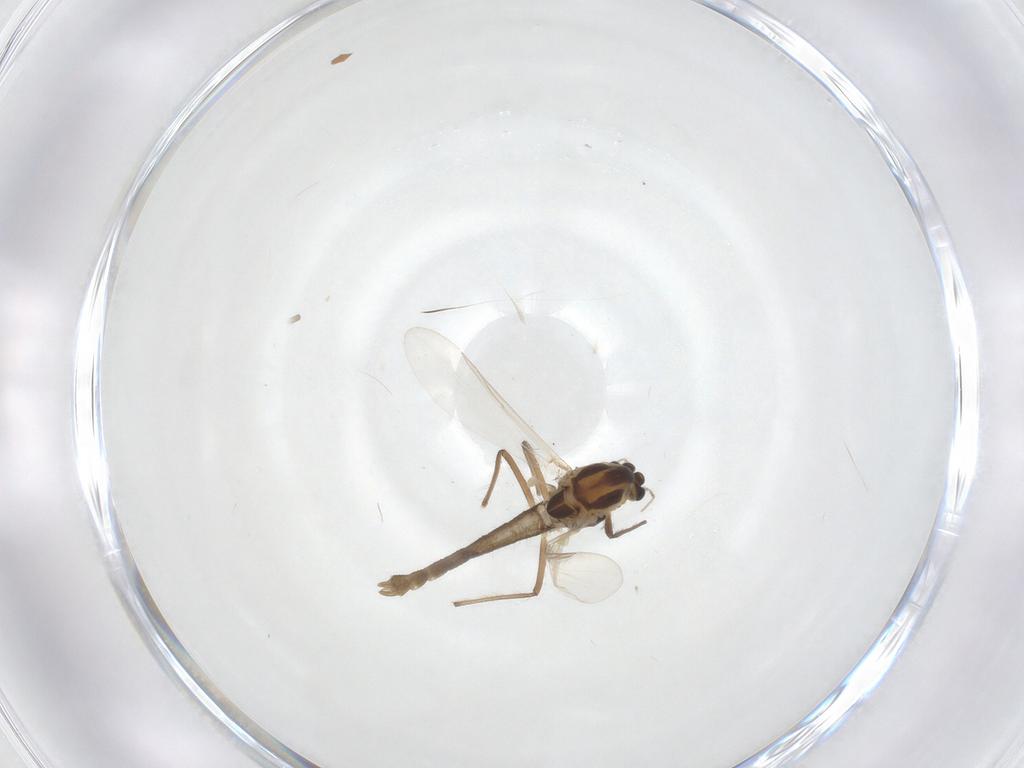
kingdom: Animalia
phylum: Arthropoda
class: Insecta
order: Diptera
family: Chironomidae
